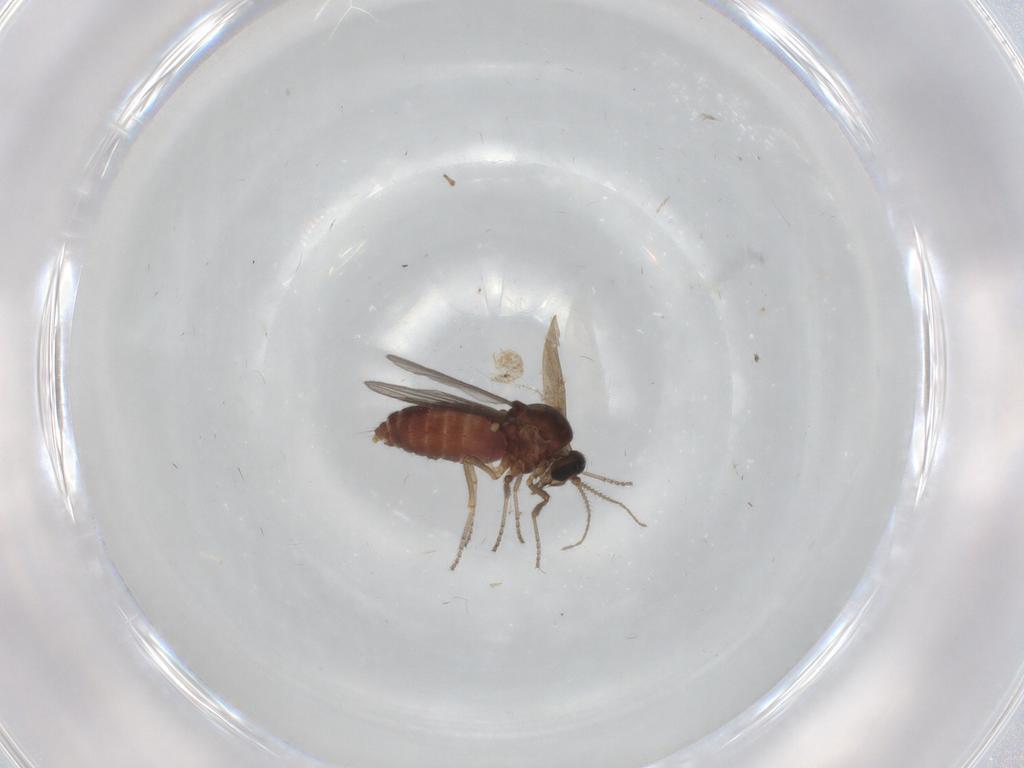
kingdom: Animalia
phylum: Arthropoda
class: Insecta
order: Diptera
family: Ceratopogonidae
